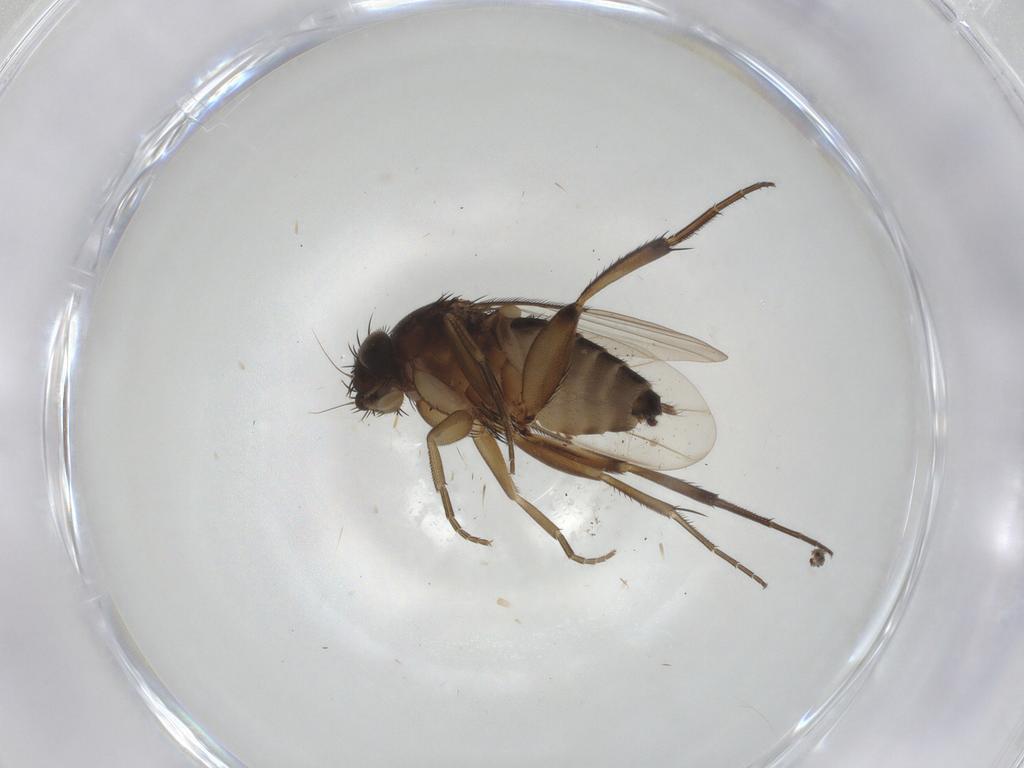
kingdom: Animalia
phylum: Arthropoda
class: Insecta
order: Diptera
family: Phoridae
